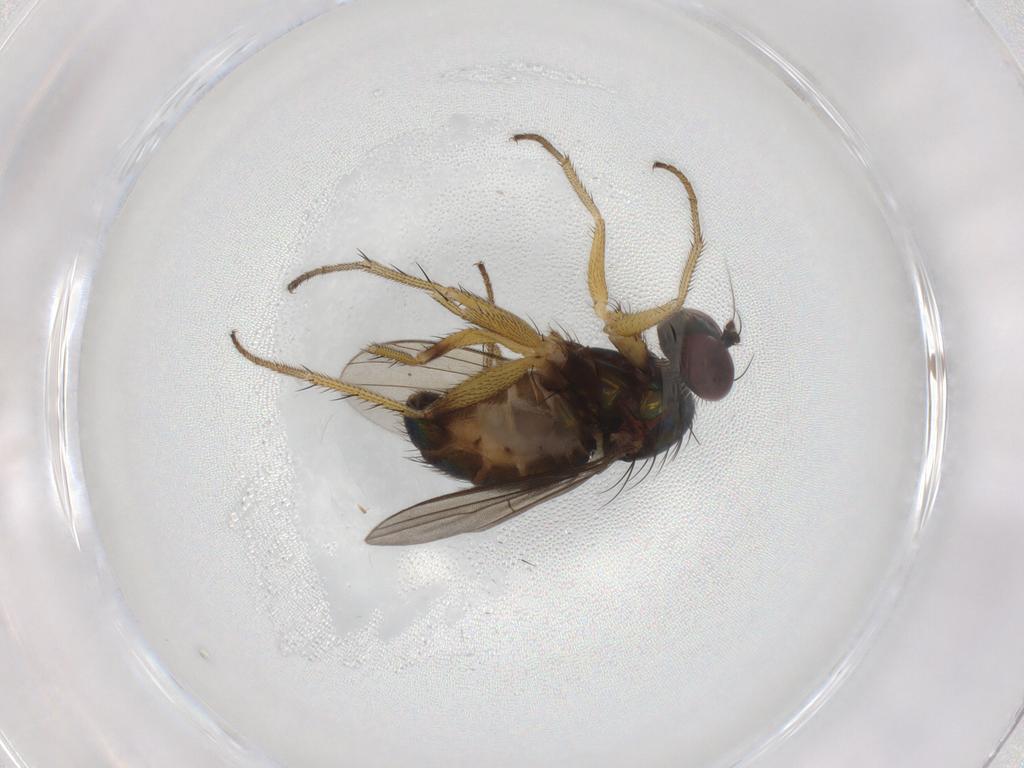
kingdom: Animalia
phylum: Arthropoda
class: Insecta
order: Diptera
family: Dolichopodidae
